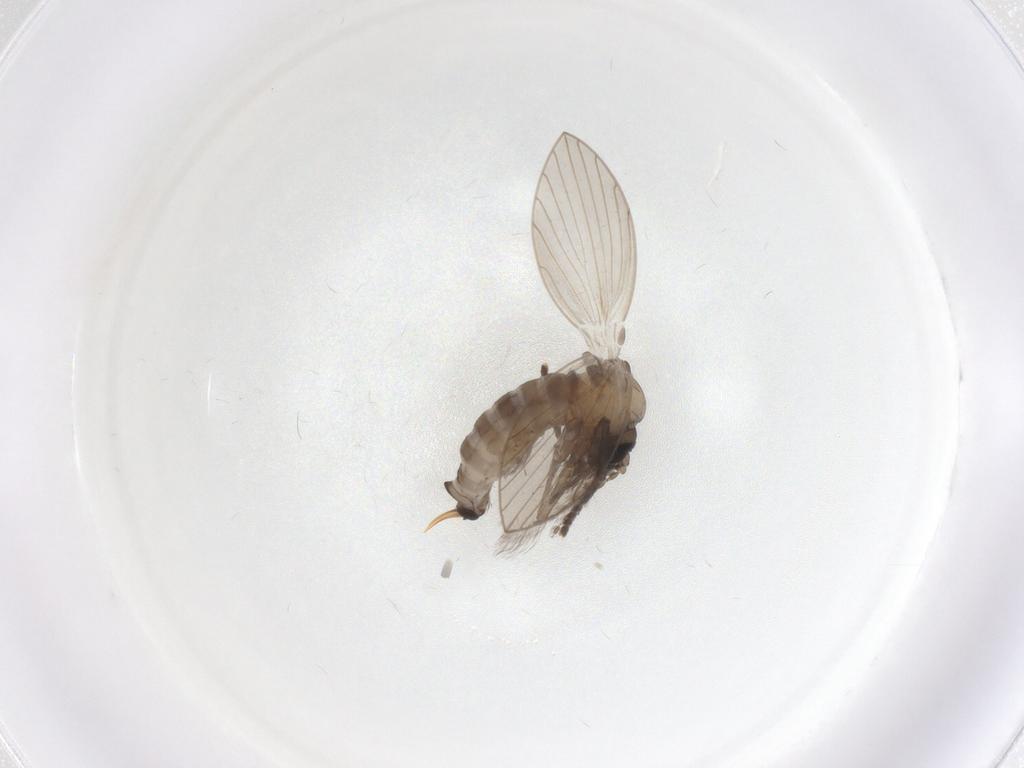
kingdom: Animalia
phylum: Arthropoda
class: Insecta
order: Diptera
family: Psychodidae
